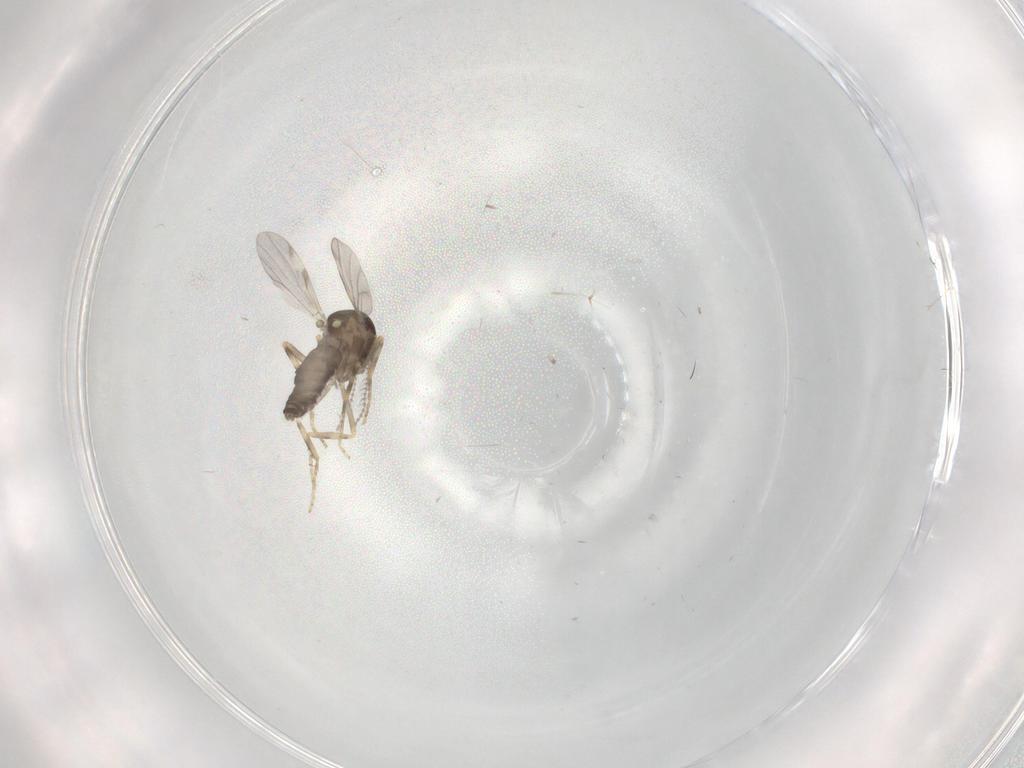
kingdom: Animalia
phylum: Arthropoda
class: Insecta
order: Diptera
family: Ceratopogonidae
